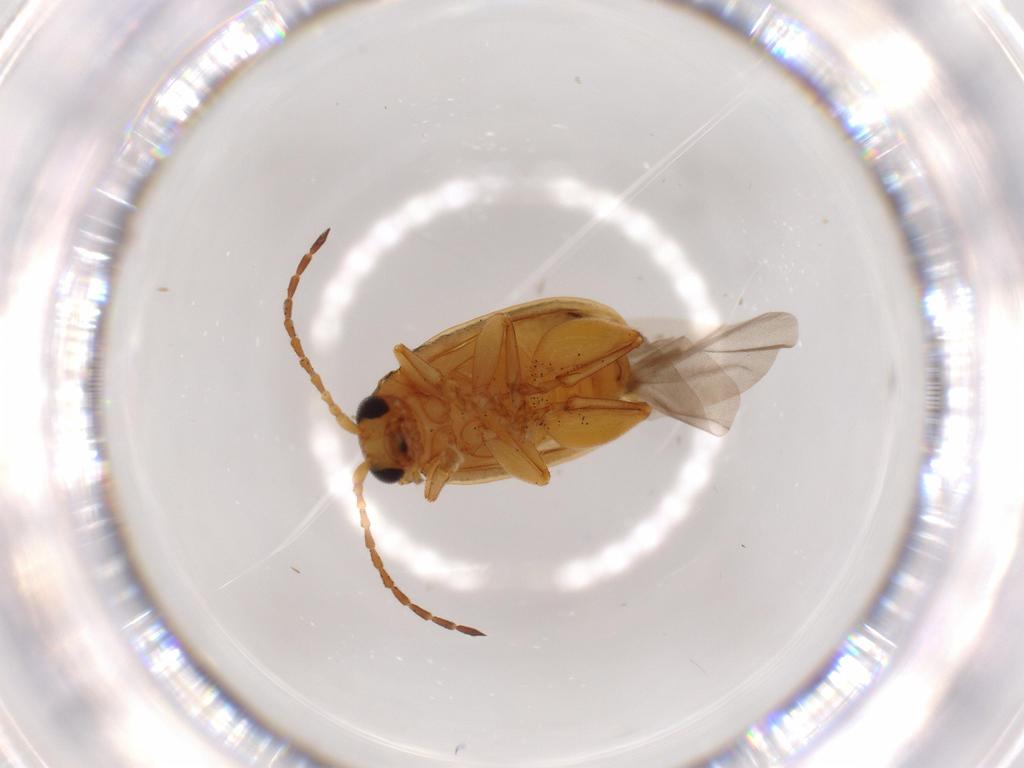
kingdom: Animalia
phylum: Arthropoda
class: Insecta
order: Coleoptera
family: Chrysomelidae
